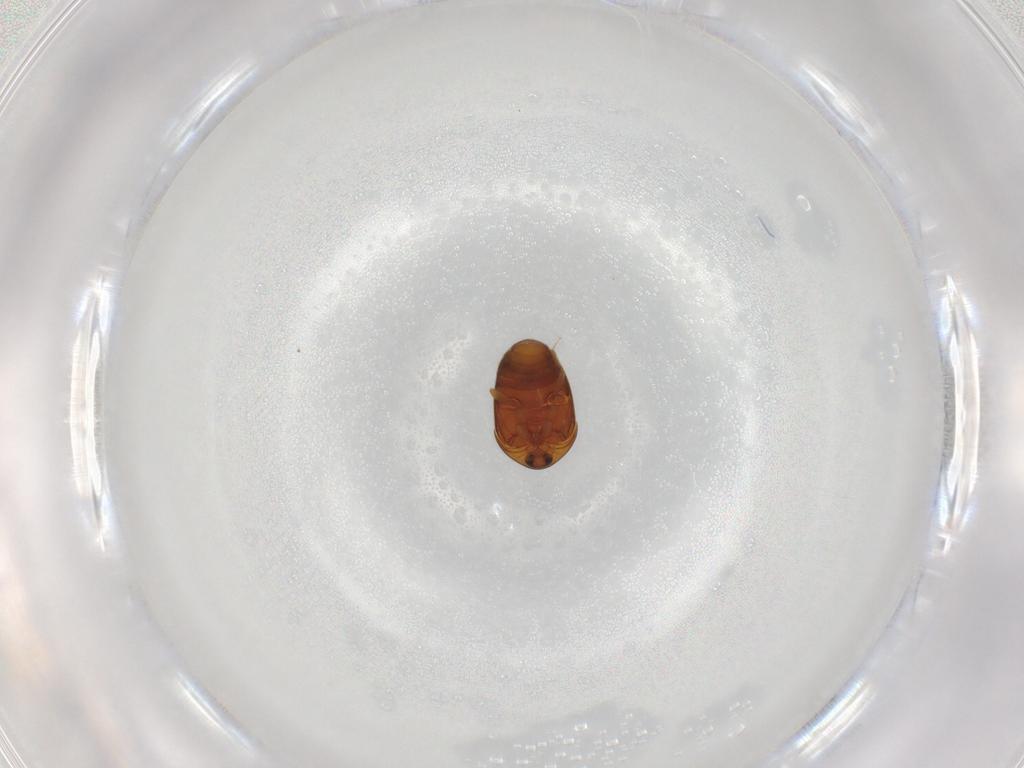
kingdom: Animalia
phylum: Arthropoda
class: Insecta
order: Coleoptera
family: Corylophidae
